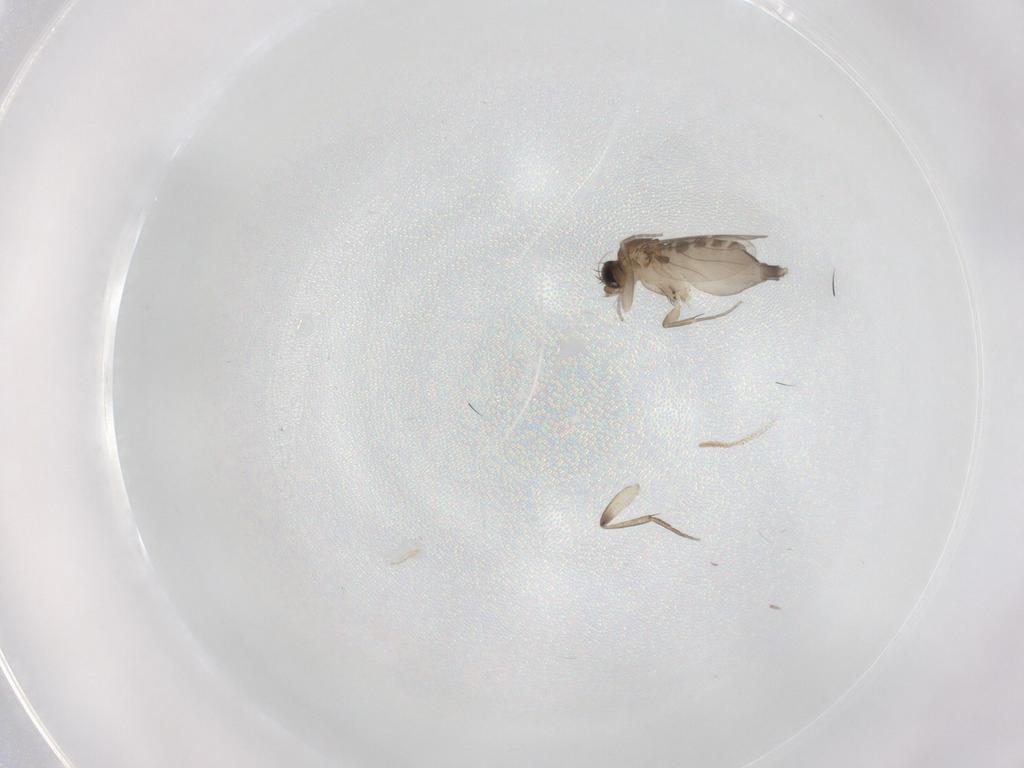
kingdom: Animalia
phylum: Arthropoda
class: Insecta
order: Diptera
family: Phoridae
